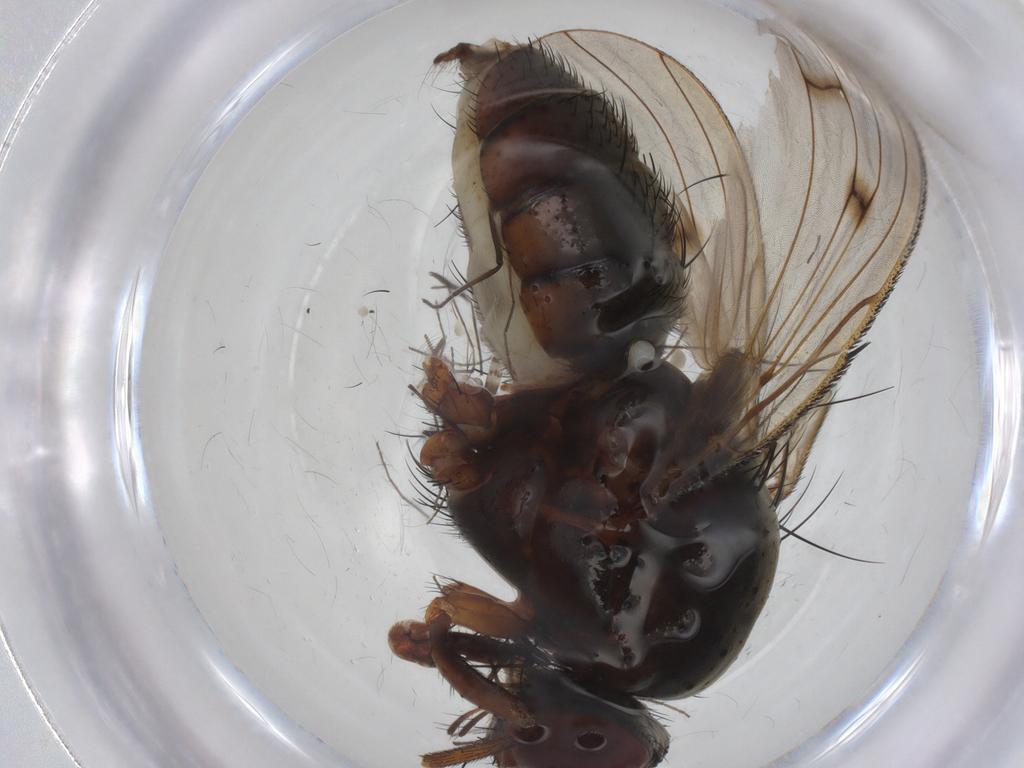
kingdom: Animalia
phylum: Arthropoda
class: Insecta
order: Diptera
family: Anthomyiidae
